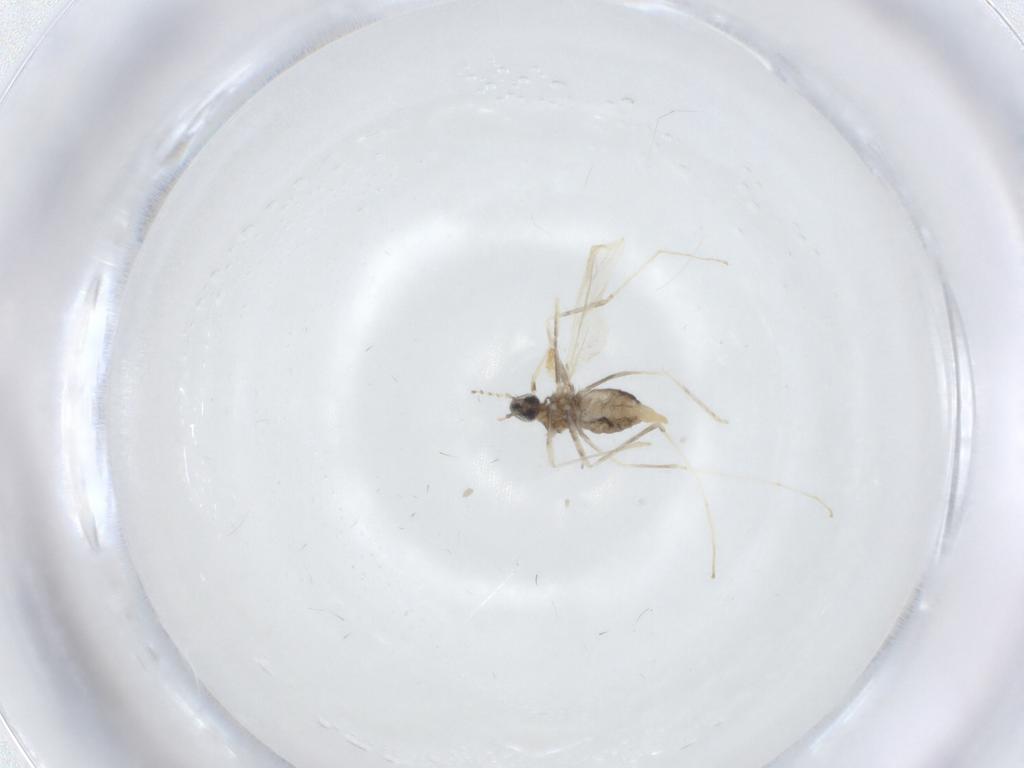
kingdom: Animalia
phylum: Arthropoda
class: Insecta
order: Diptera
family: Cecidomyiidae
